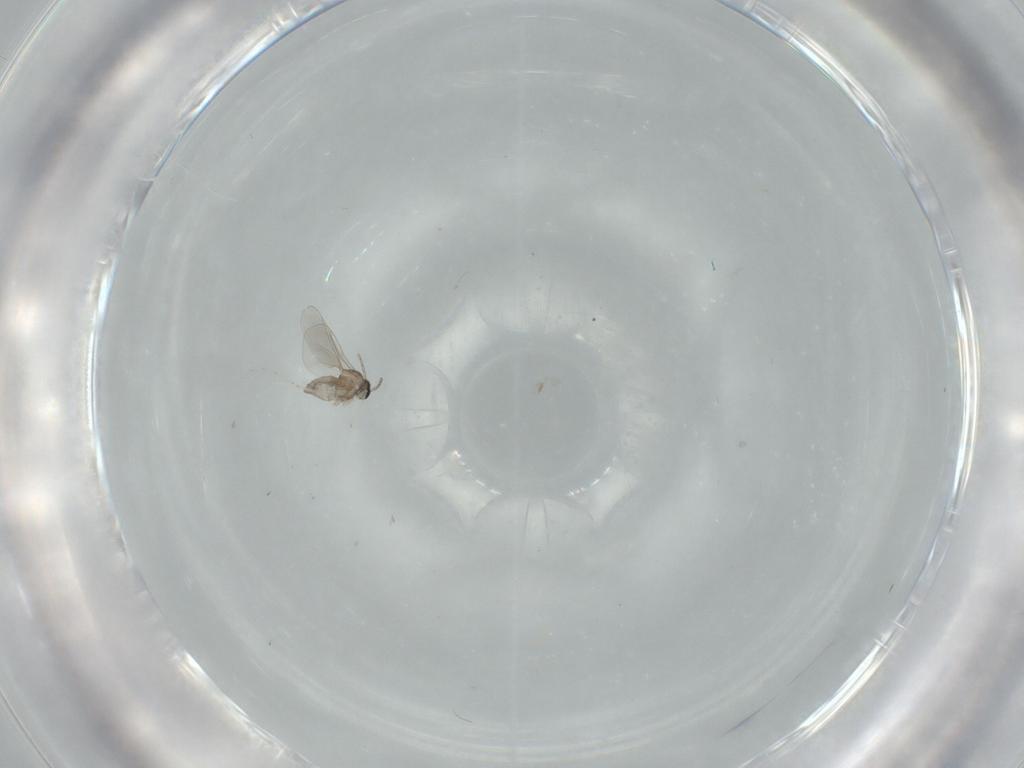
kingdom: Animalia
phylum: Arthropoda
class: Insecta
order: Diptera
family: Cecidomyiidae
